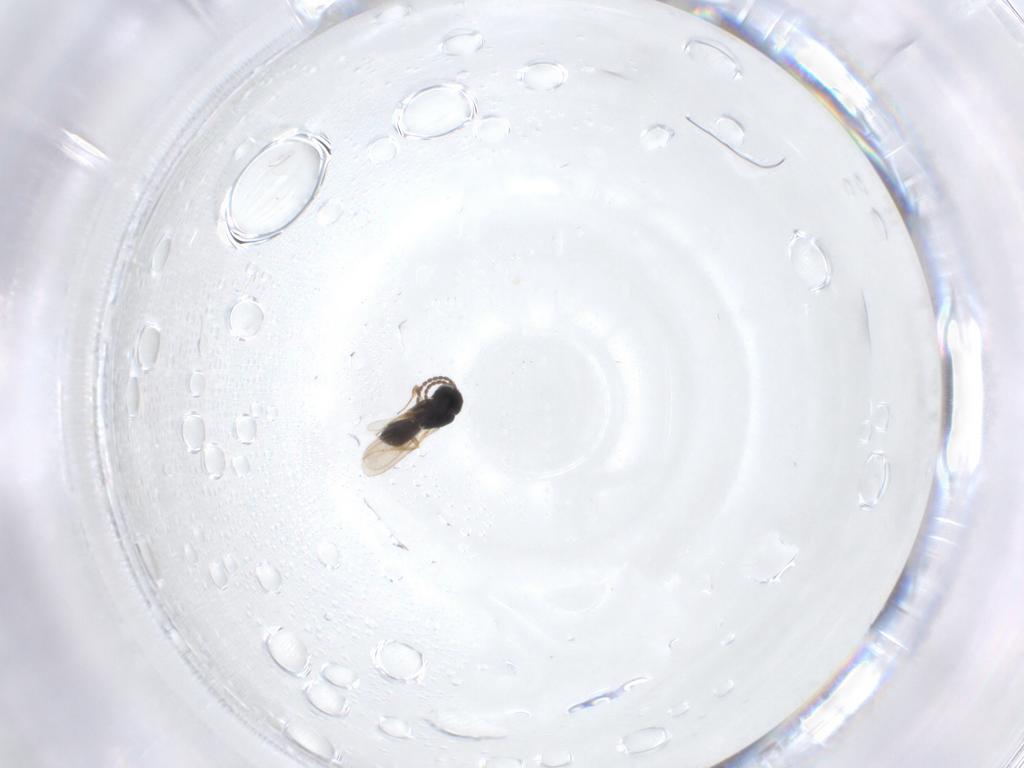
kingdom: Animalia
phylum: Arthropoda
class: Insecta
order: Hymenoptera
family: Scelionidae
